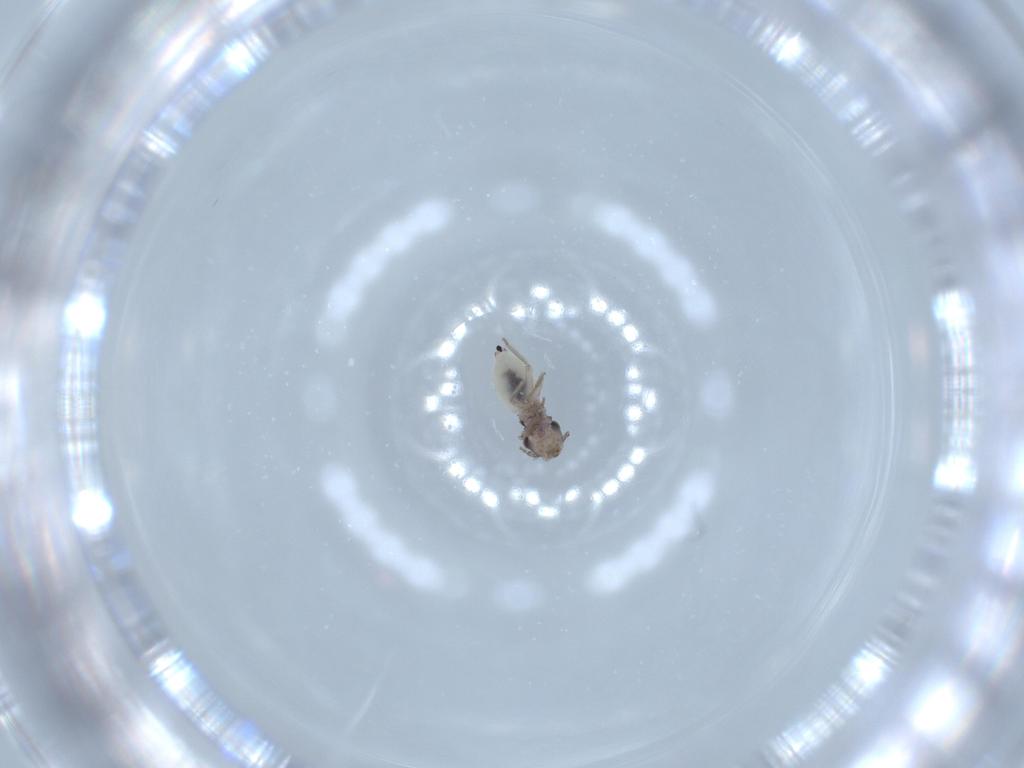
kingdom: Animalia
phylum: Arthropoda
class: Insecta
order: Psocodea
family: Lepidopsocidae
